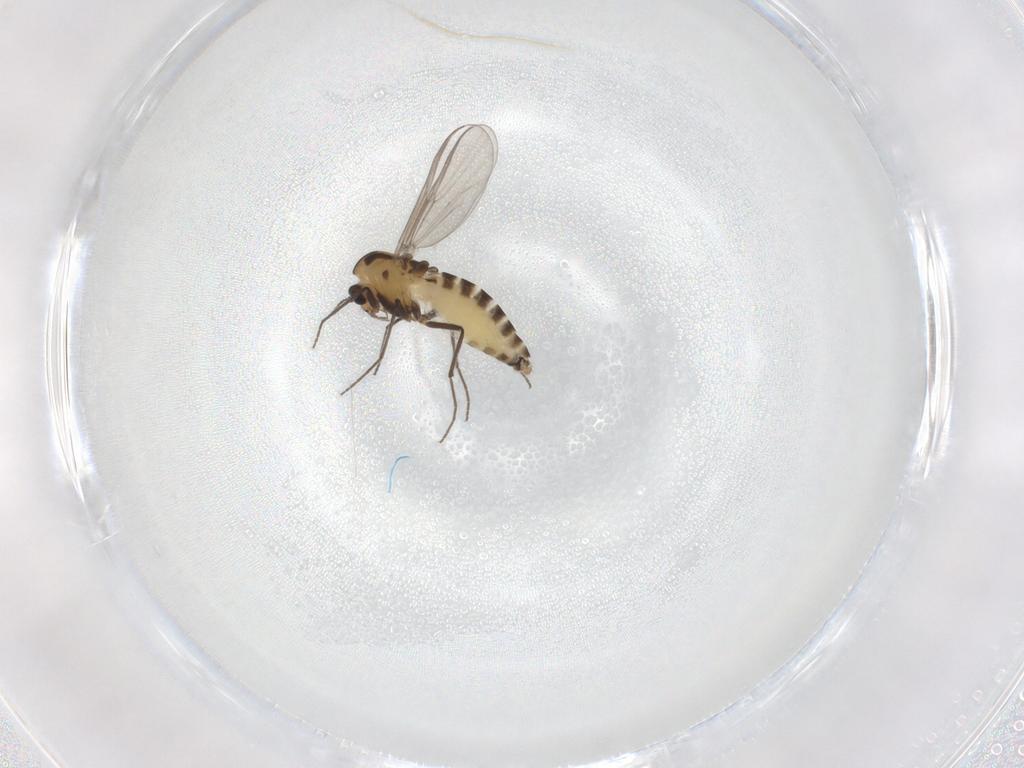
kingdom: Animalia
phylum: Arthropoda
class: Insecta
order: Diptera
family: Chironomidae
